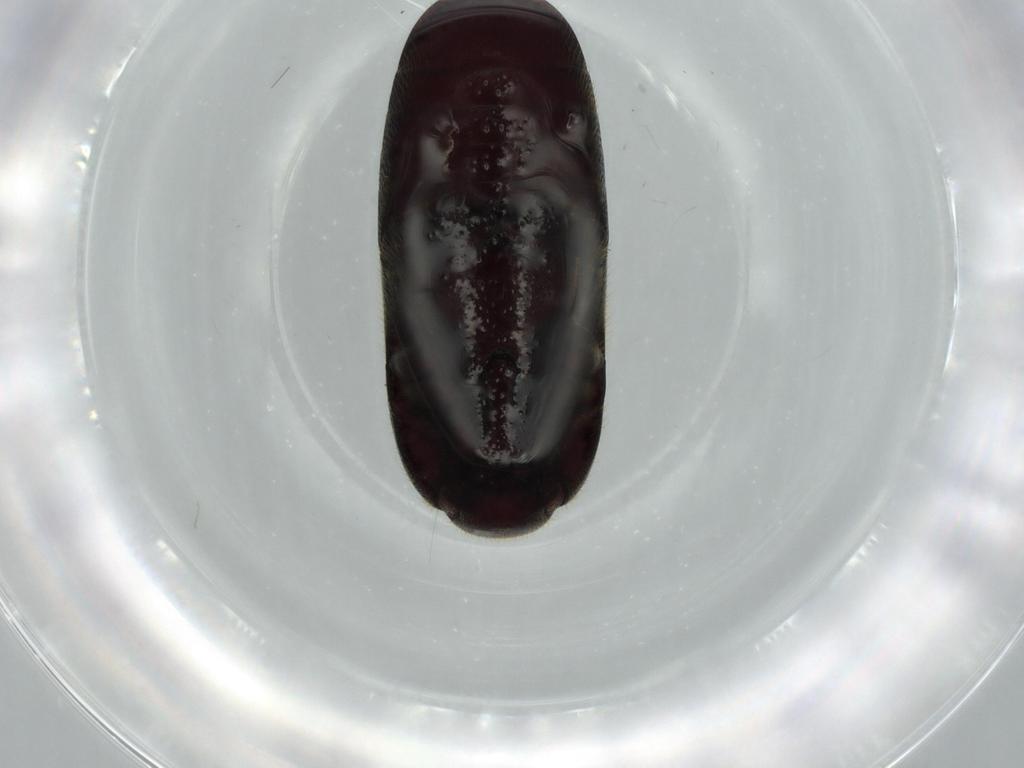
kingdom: Animalia
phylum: Arthropoda
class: Insecta
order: Coleoptera
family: Throscidae
